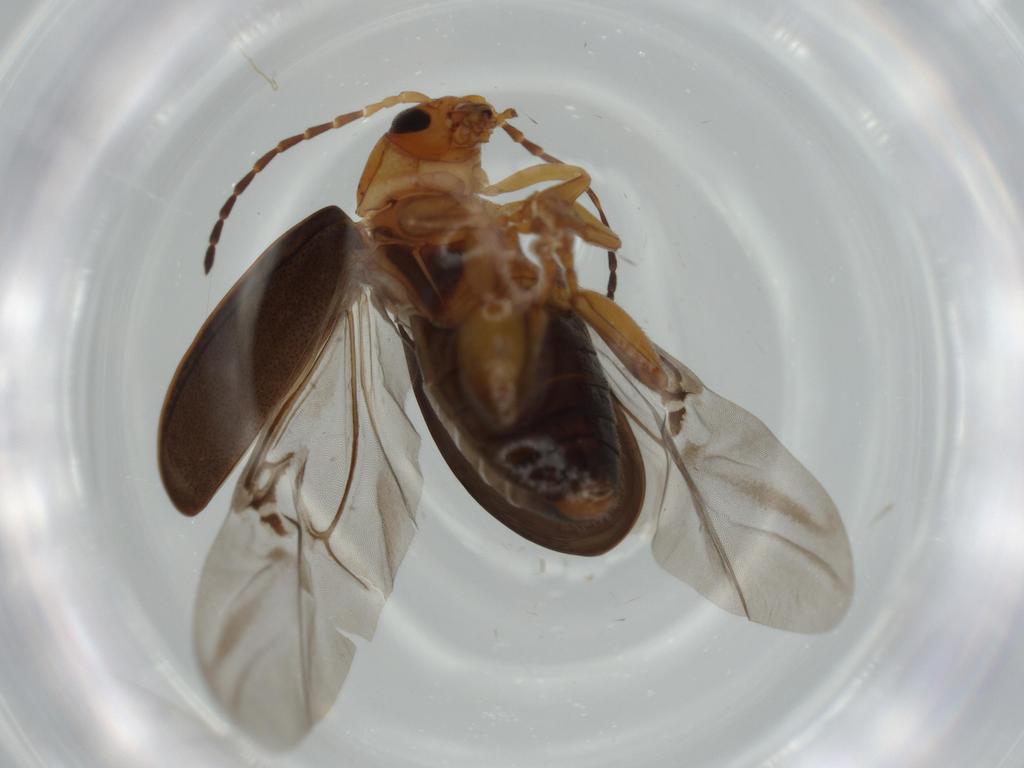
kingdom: Animalia
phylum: Arthropoda
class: Insecta
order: Coleoptera
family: Chrysomelidae
